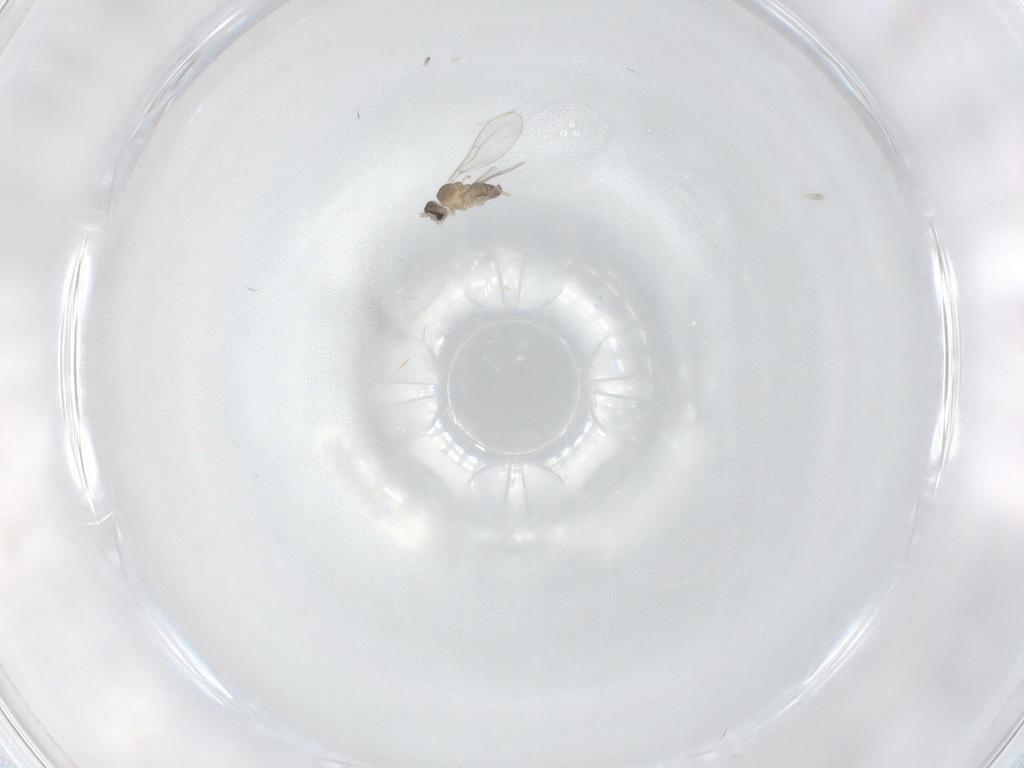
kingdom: Animalia
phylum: Arthropoda
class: Insecta
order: Diptera
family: Cecidomyiidae
